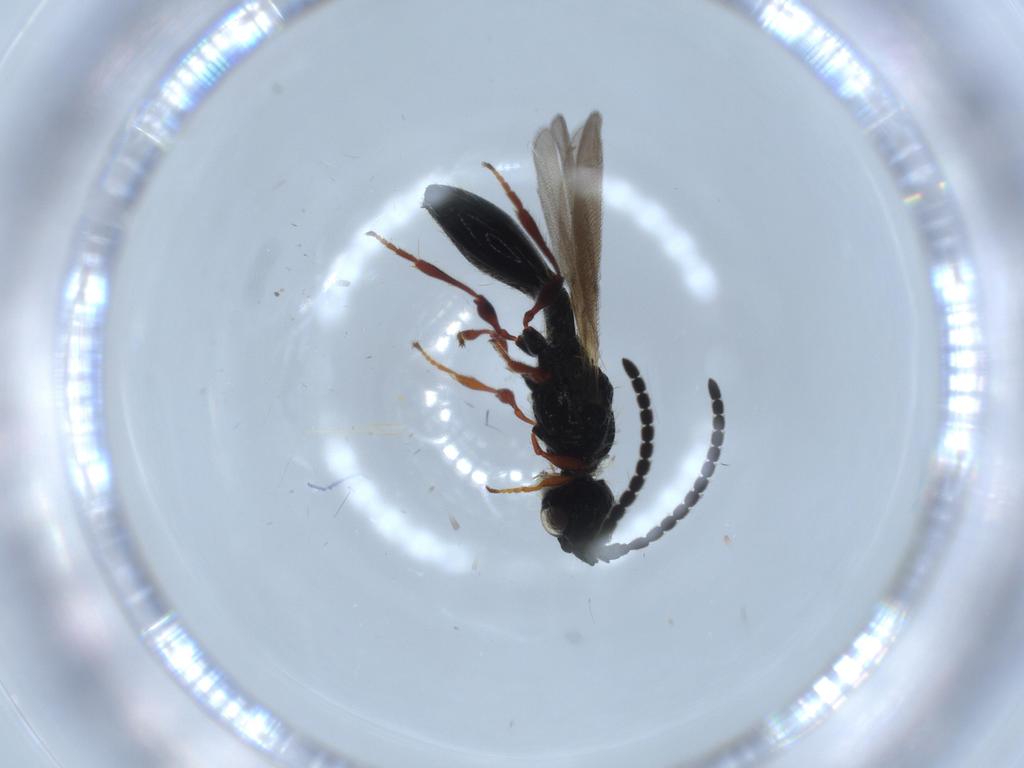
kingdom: Animalia
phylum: Arthropoda
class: Insecta
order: Hymenoptera
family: Diapriidae
